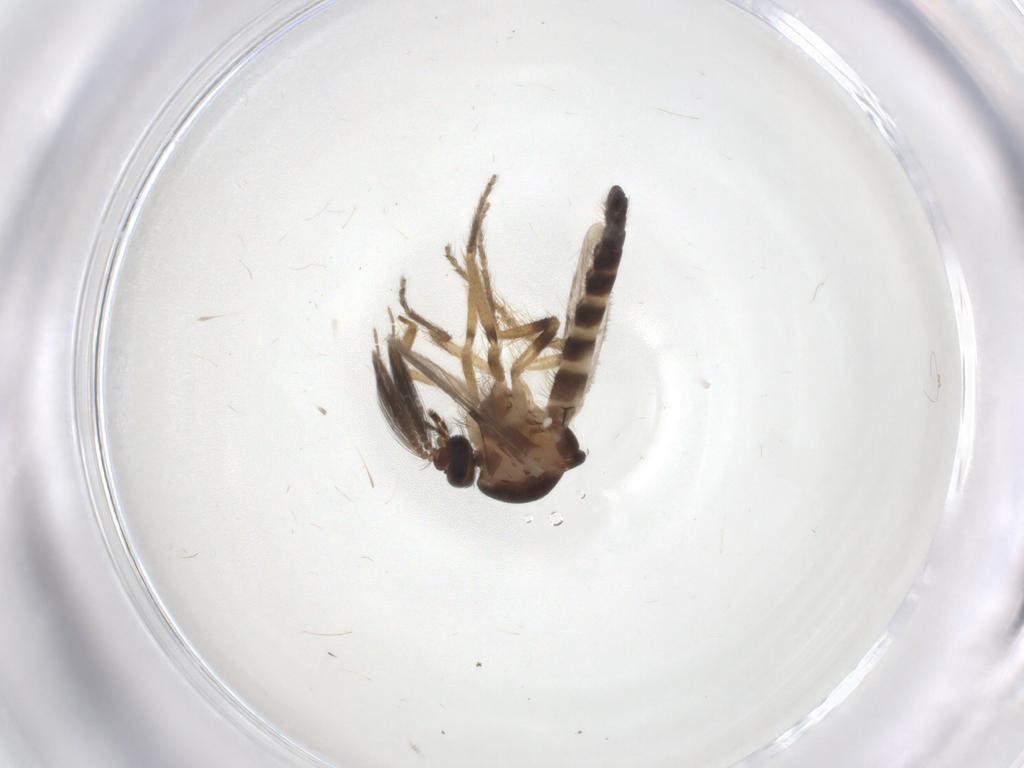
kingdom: Animalia
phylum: Arthropoda
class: Insecta
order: Diptera
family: Ceratopogonidae
